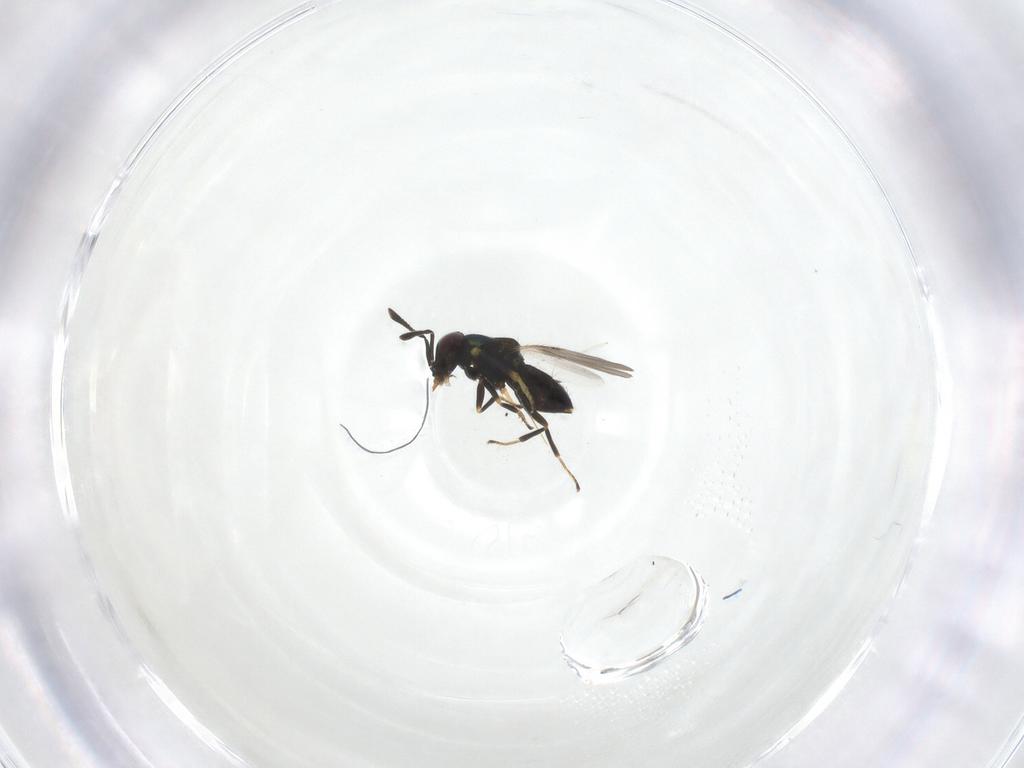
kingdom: Animalia
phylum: Arthropoda
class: Insecta
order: Hymenoptera
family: Encyrtidae
